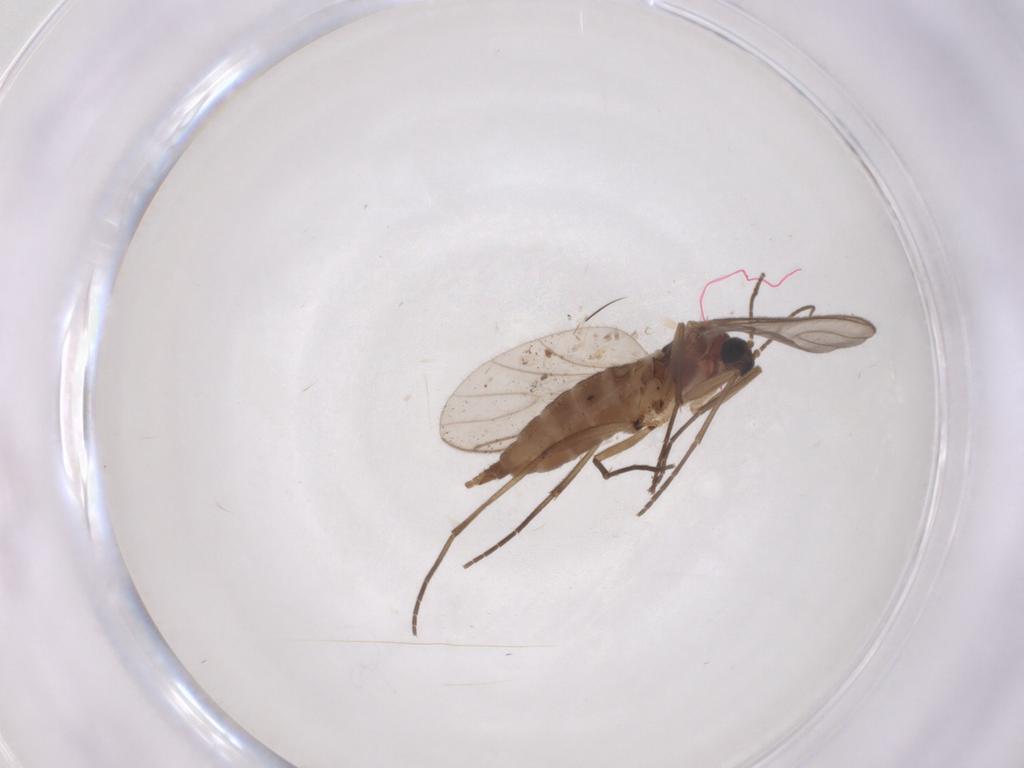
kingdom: Animalia
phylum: Arthropoda
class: Insecta
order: Diptera
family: Sciaridae
